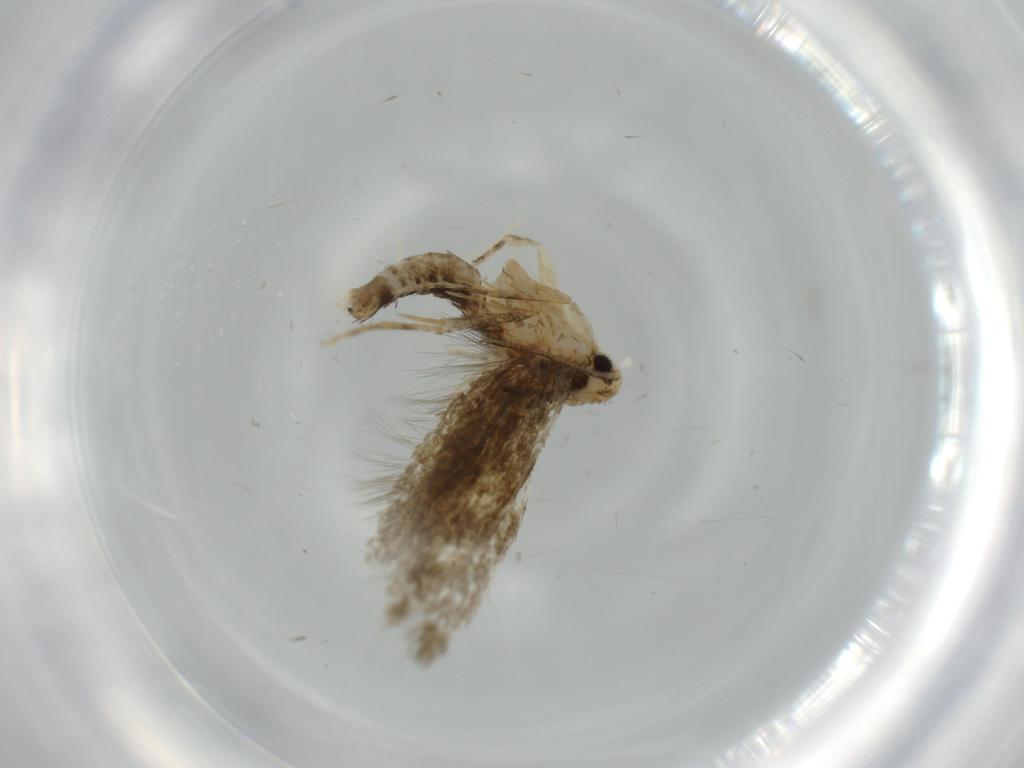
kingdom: Animalia
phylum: Arthropoda
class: Insecta
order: Lepidoptera
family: Tineidae
